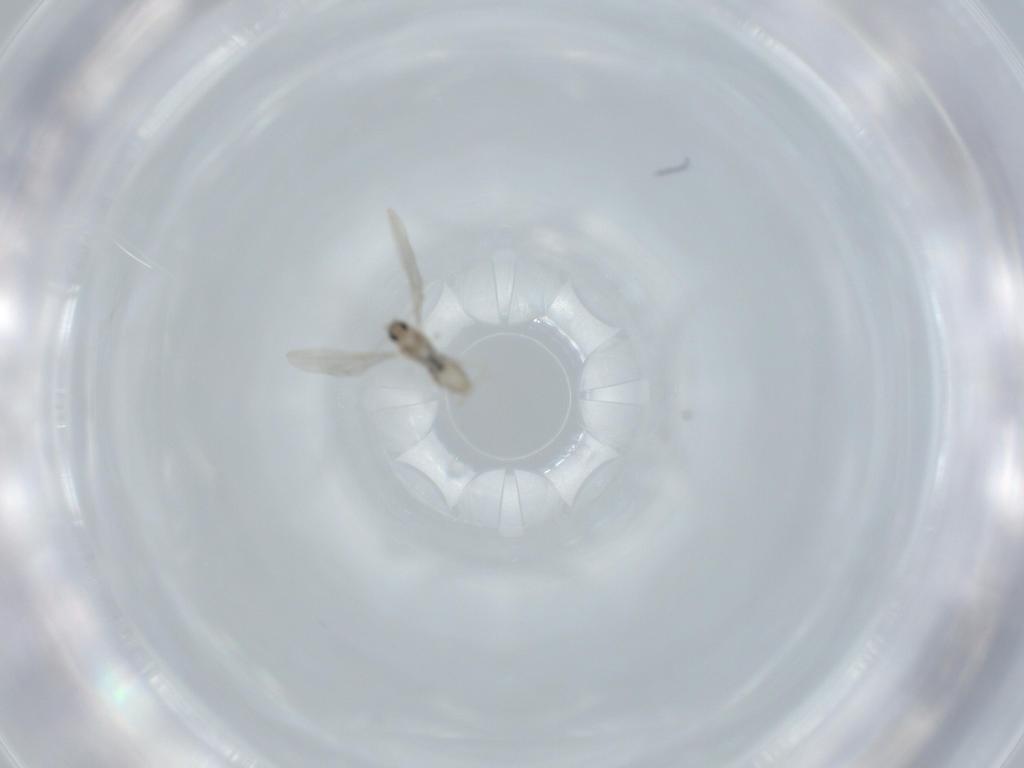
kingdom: Animalia
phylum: Arthropoda
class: Insecta
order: Diptera
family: Cecidomyiidae
